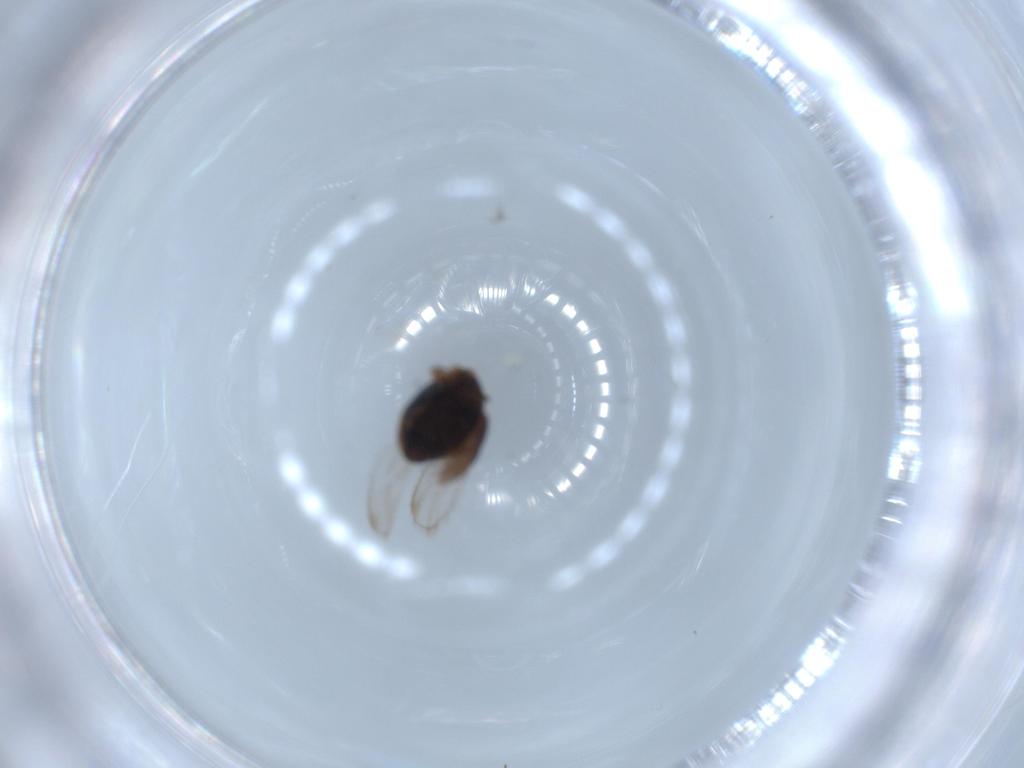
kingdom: Animalia
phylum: Arthropoda
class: Insecta
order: Coleoptera
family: Corylophidae
